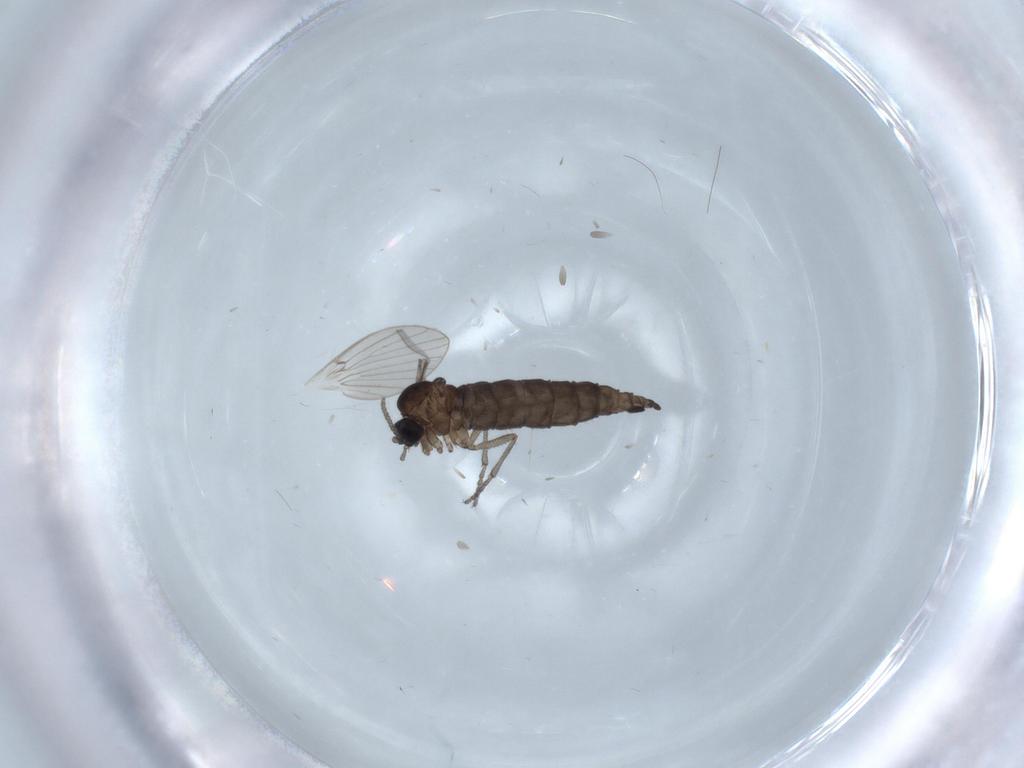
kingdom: Animalia
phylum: Arthropoda
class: Insecta
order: Diptera
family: Sciaridae
